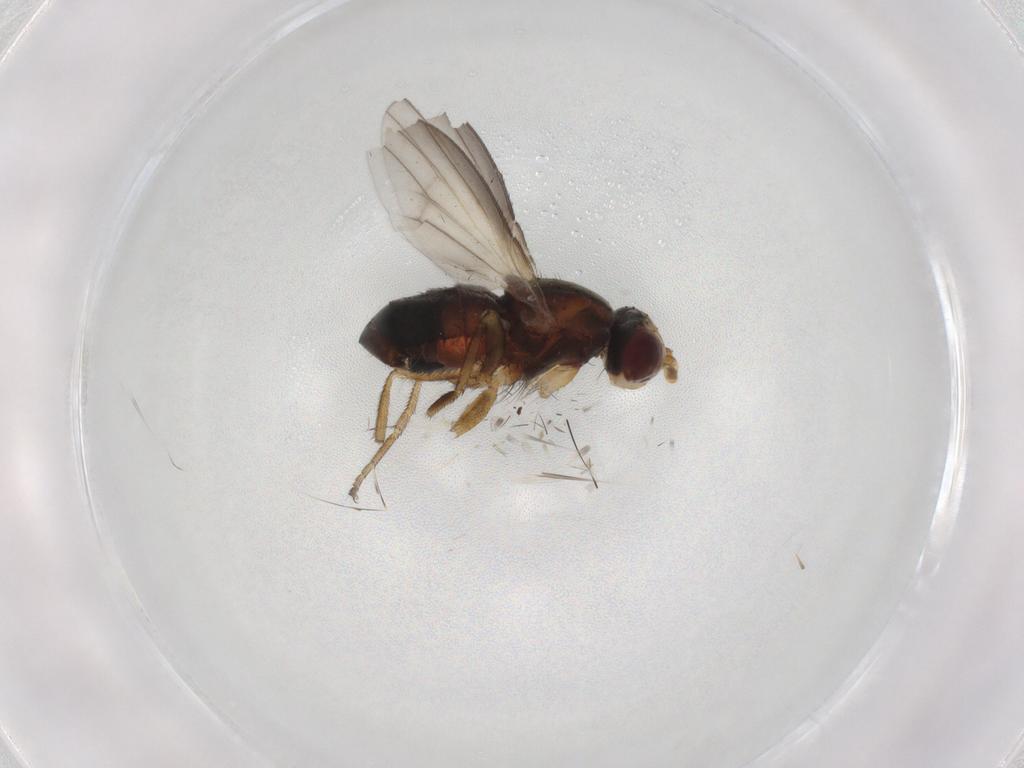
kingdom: Animalia
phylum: Arthropoda
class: Insecta
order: Diptera
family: Heleomyzidae
